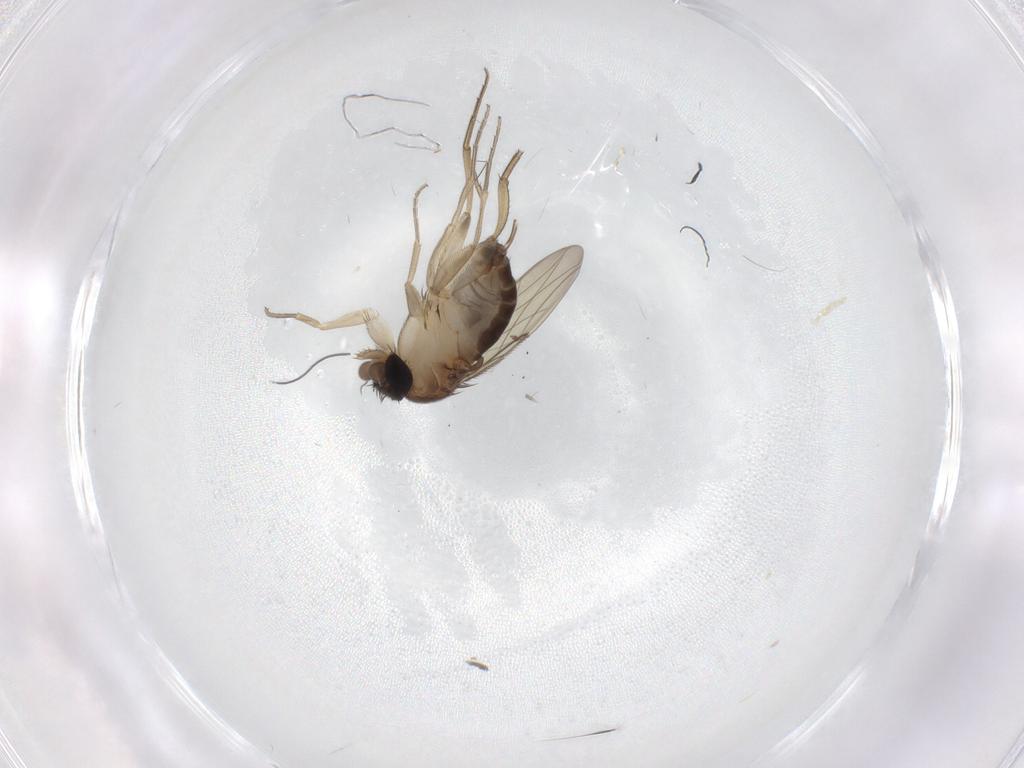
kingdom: Animalia
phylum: Arthropoda
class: Insecta
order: Diptera
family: Phoridae
